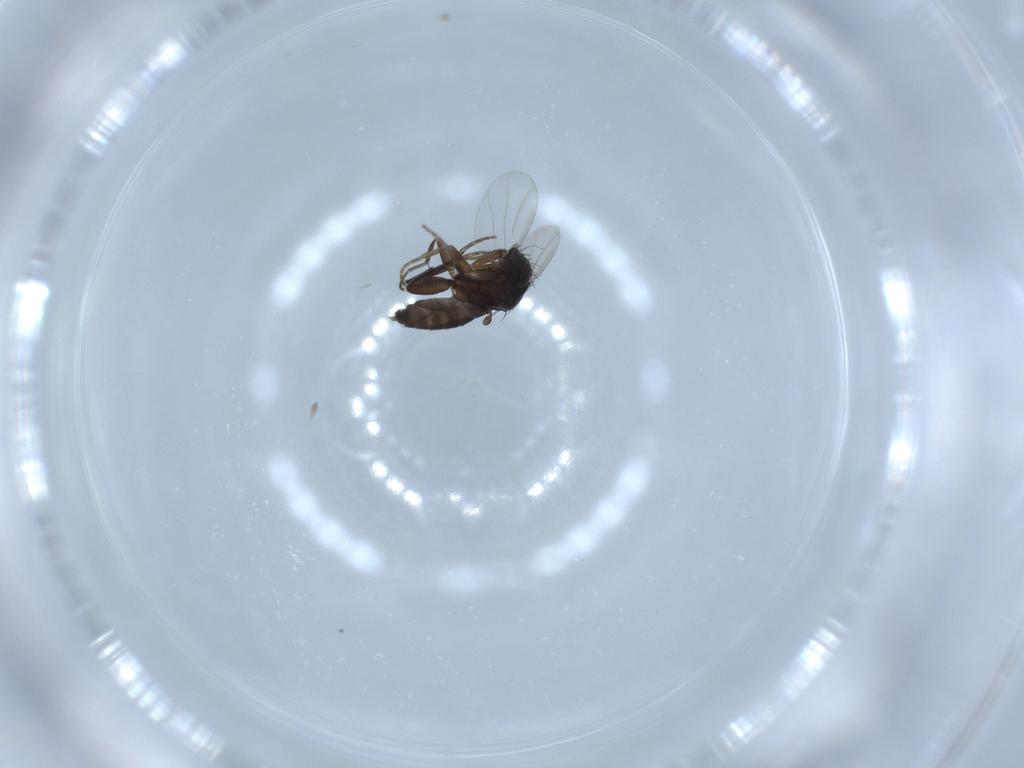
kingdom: Animalia
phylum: Arthropoda
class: Insecta
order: Diptera
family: Phoridae
